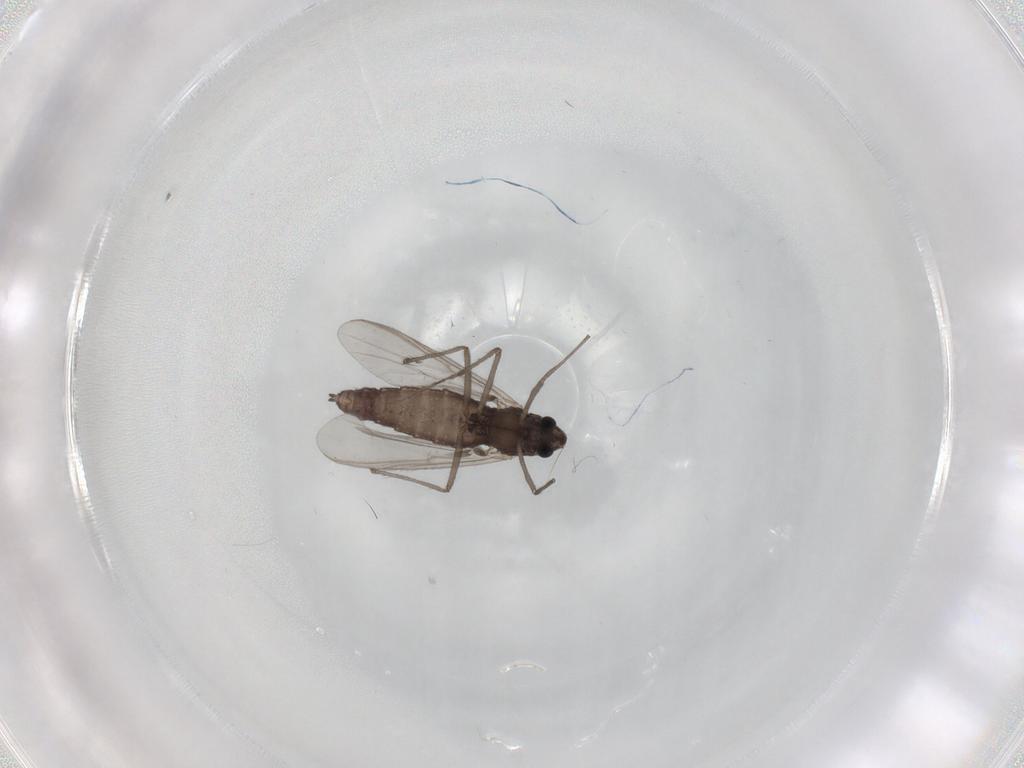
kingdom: Animalia
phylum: Arthropoda
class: Insecta
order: Diptera
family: Chironomidae
